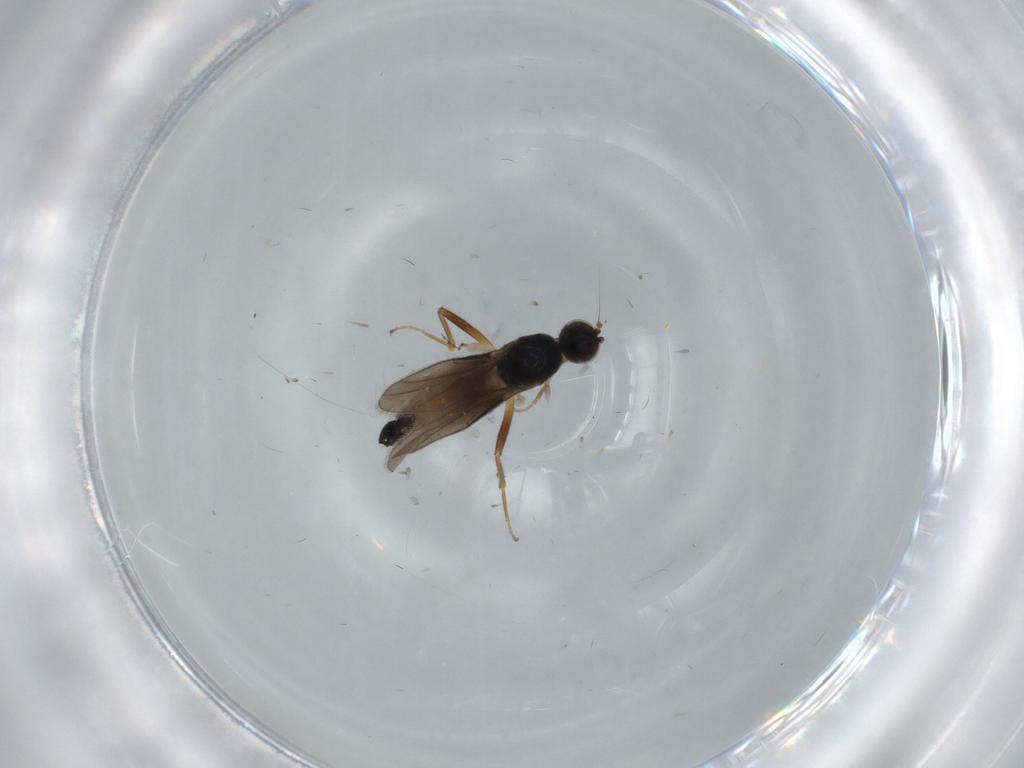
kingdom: Animalia
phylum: Arthropoda
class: Insecta
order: Diptera
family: Hybotidae
